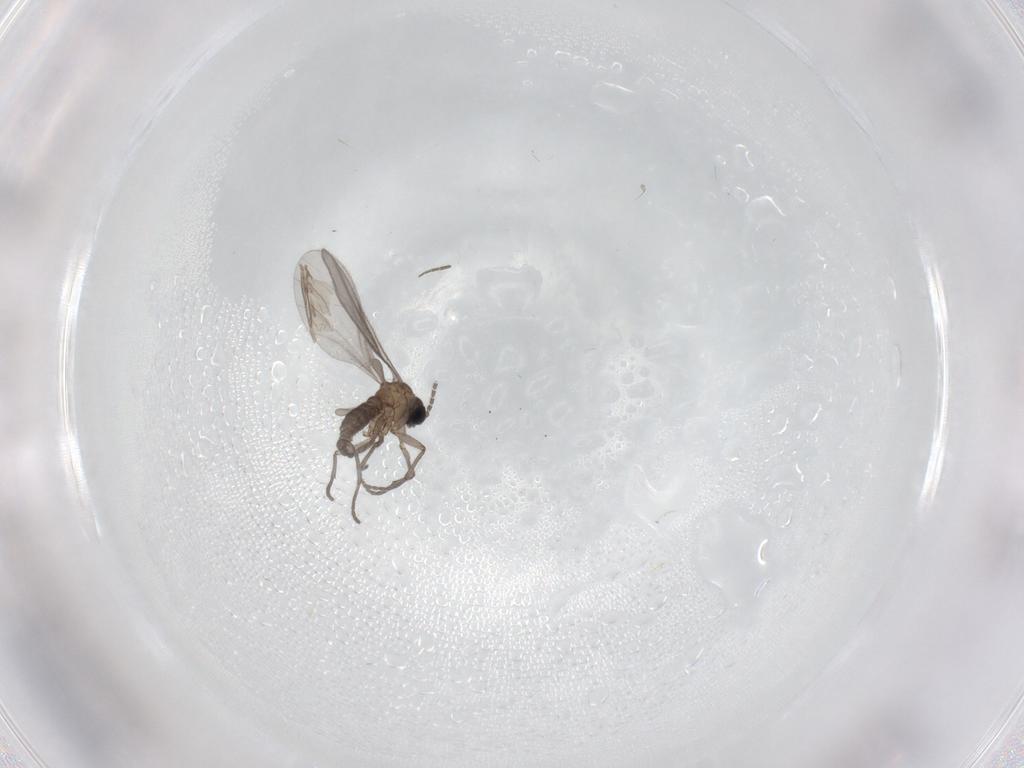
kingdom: Animalia
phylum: Arthropoda
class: Insecta
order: Diptera
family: Sciaridae
